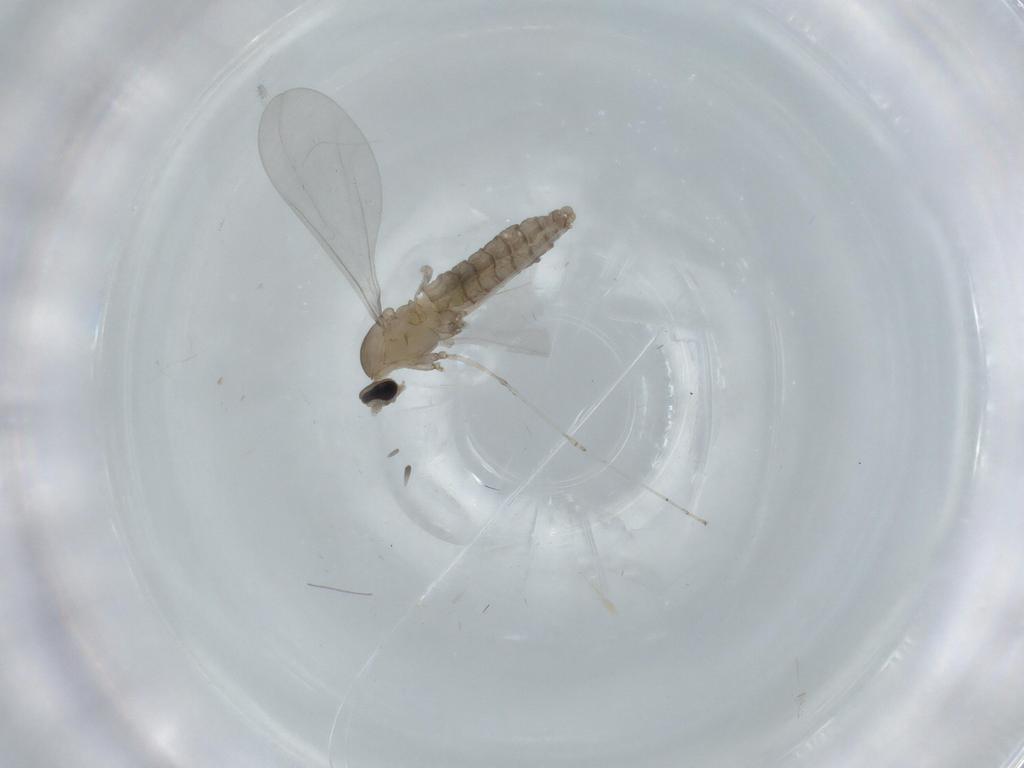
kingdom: Animalia
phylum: Arthropoda
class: Insecta
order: Diptera
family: Cecidomyiidae
